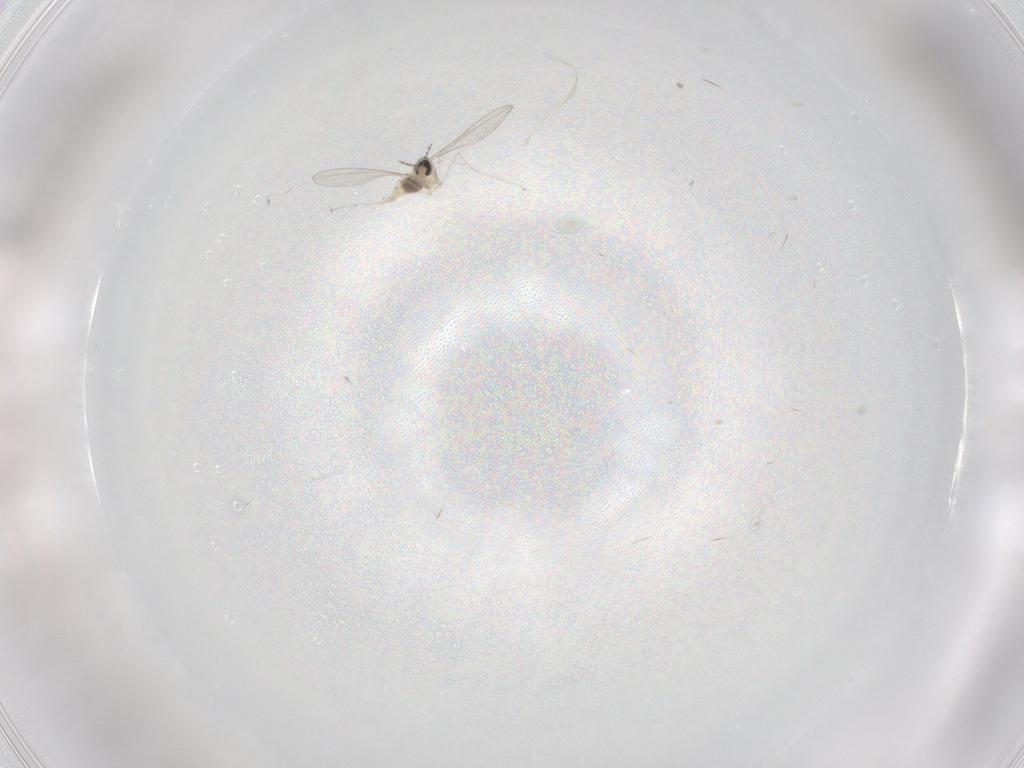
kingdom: Animalia
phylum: Arthropoda
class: Insecta
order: Diptera
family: Cecidomyiidae
